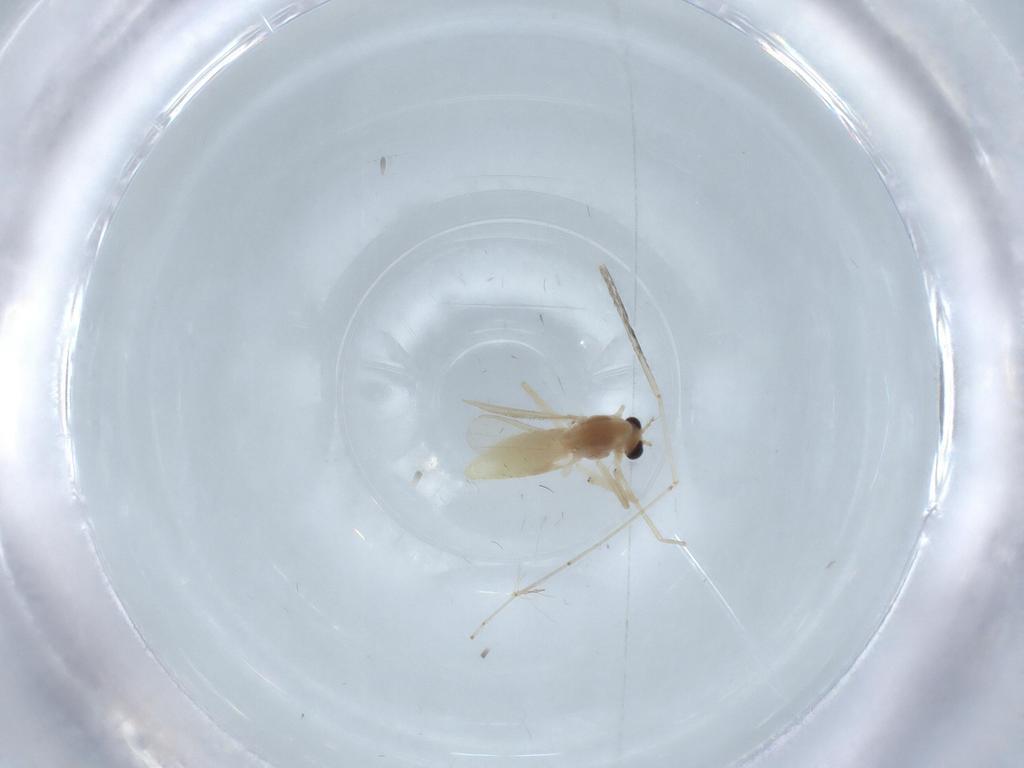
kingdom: Animalia
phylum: Arthropoda
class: Insecta
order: Diptera
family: Chironomidae
